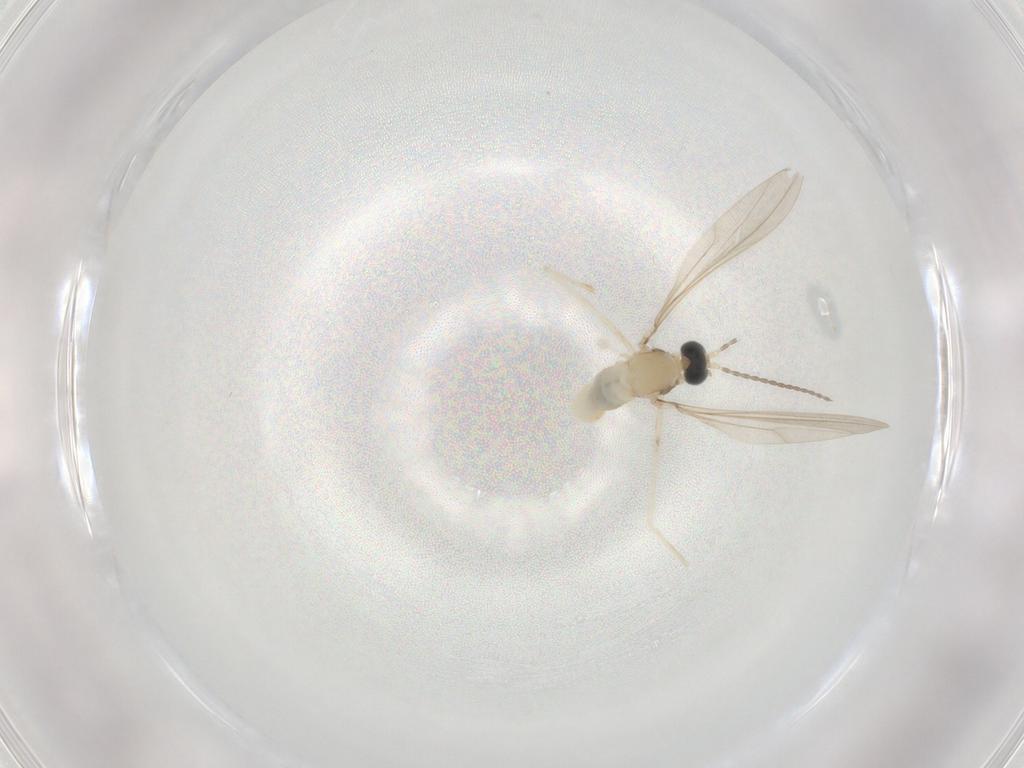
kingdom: Animalia
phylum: Arthropoda
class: Insecta
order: Diptera
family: Cecidomyiidae
